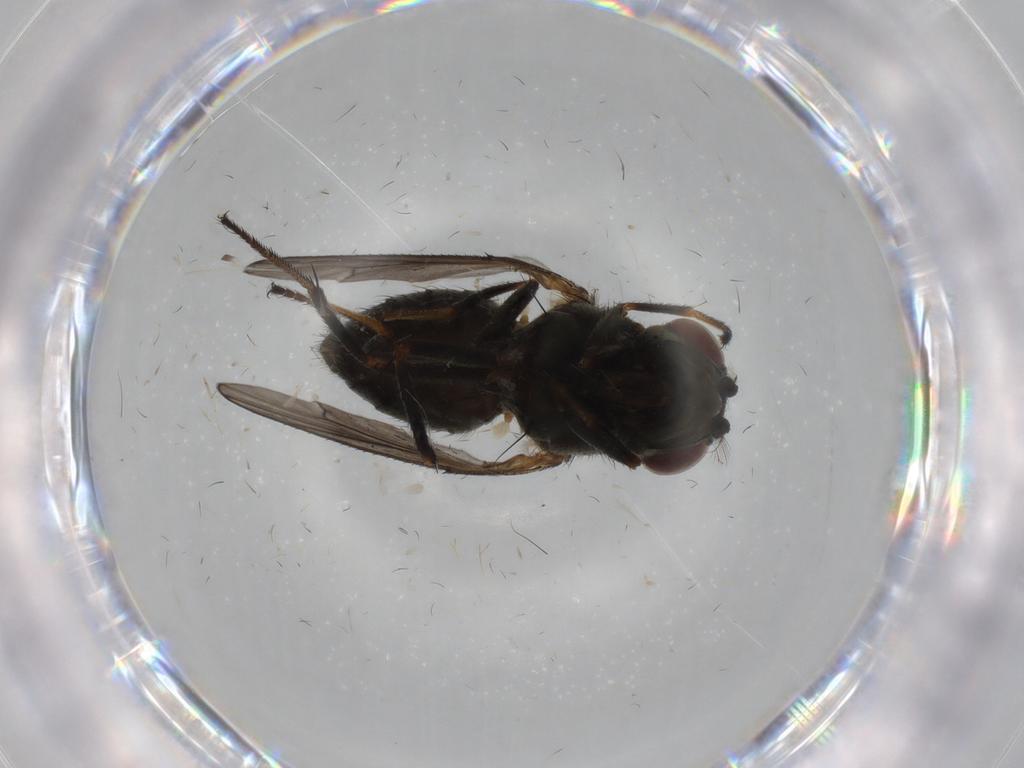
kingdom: Animalia
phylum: Arthropoda
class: Insecta
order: Diptera
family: Ephydridae
